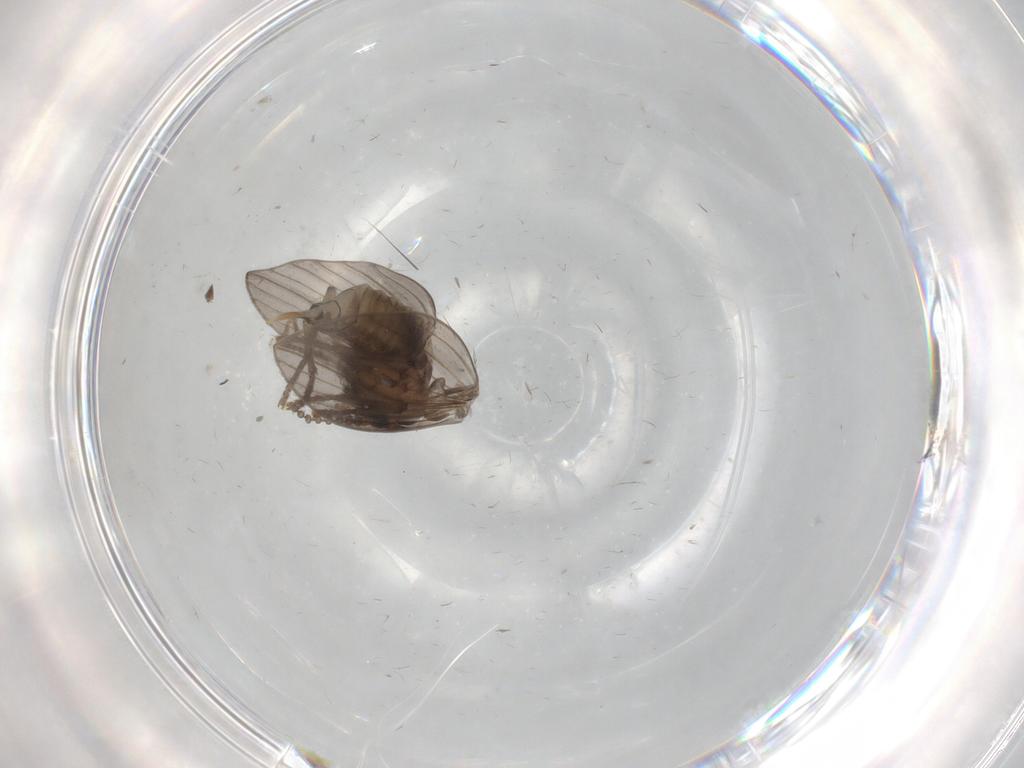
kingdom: Animalia
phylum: Arthropoda
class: Insecta
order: Diptera
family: Psychodidae
